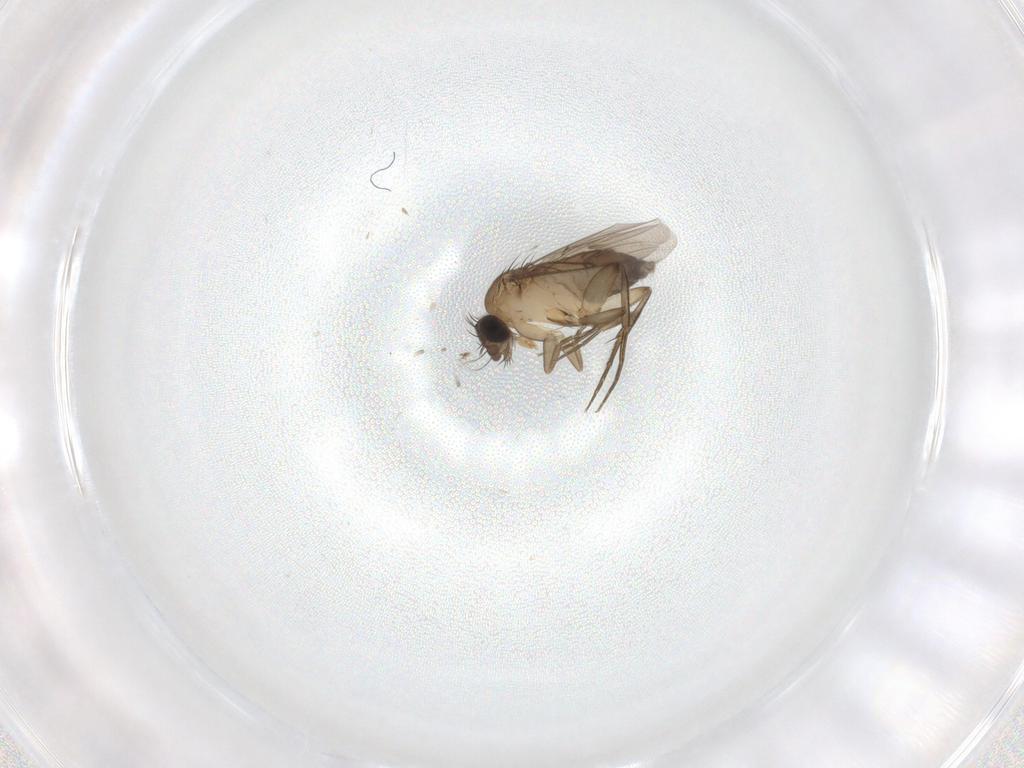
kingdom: Animalia
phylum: Arthropoda
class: Insecta
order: Diptera
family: Phoridae
